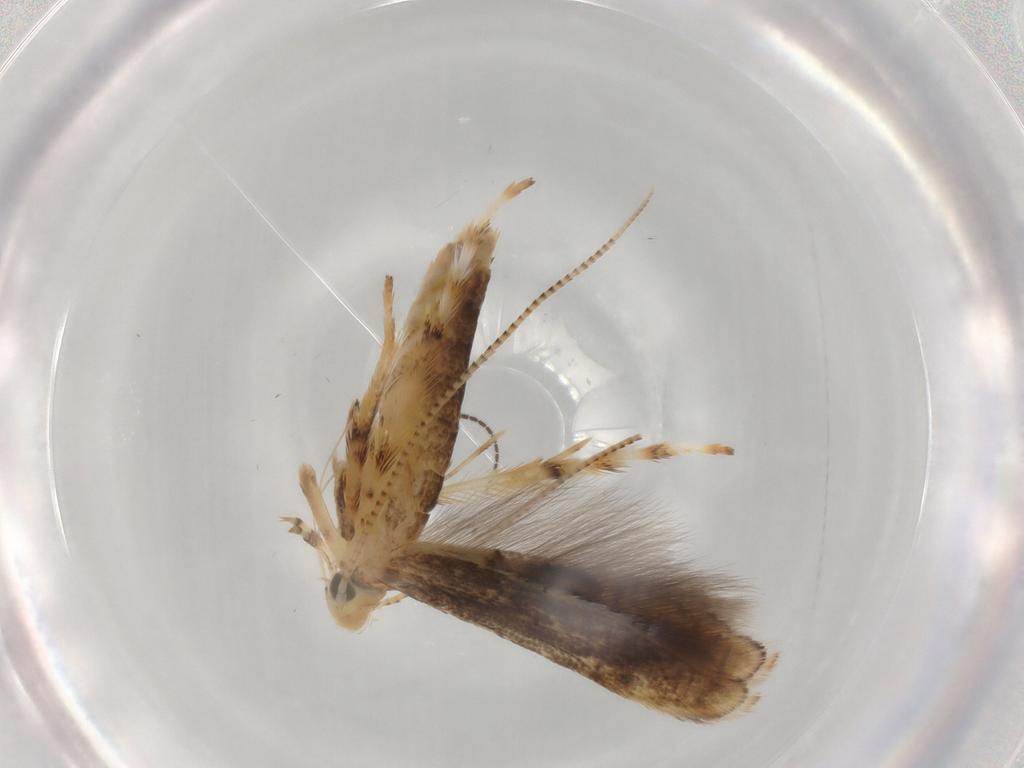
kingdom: Animalia
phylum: Arthropoda
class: Insecta
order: Lepidoptera
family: Gracillariidae
